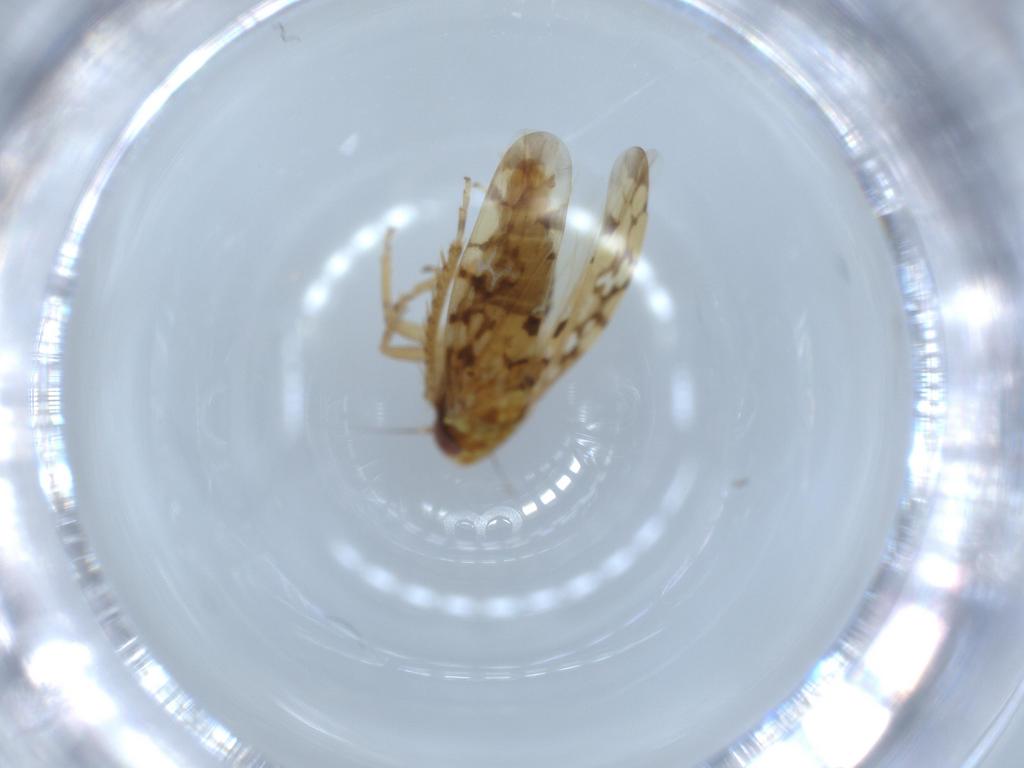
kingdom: Animalia
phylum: Arthropoda
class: Insecta
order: Hemiptera
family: Cicadellidae
